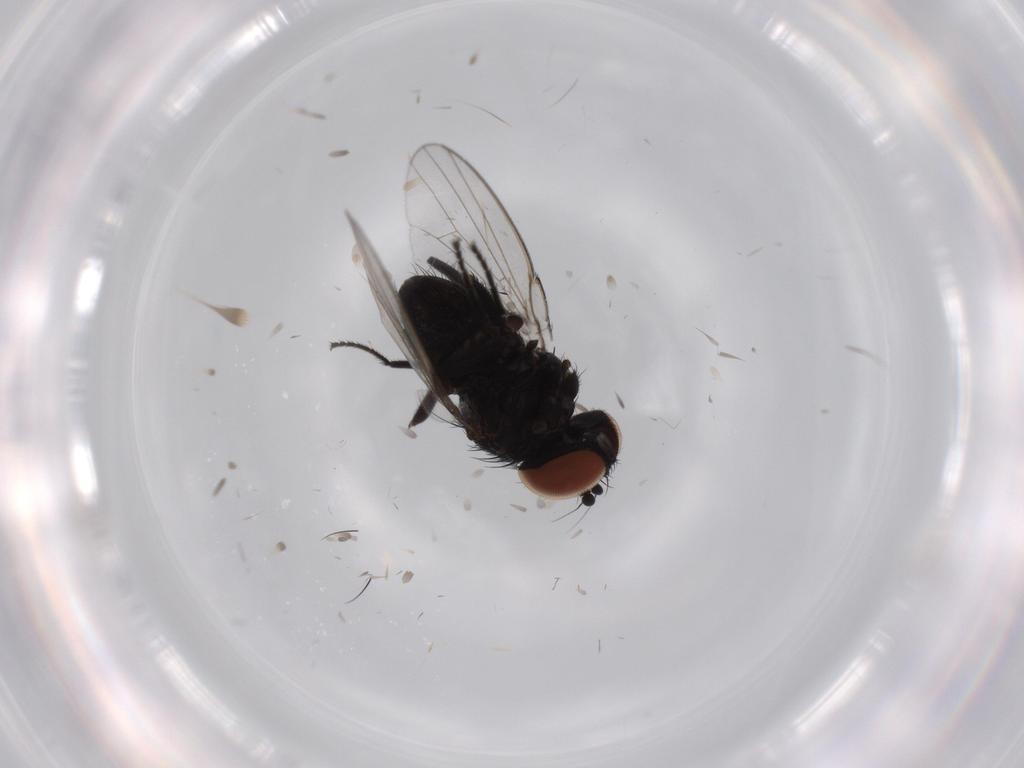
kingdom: Animalia
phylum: Arthropoda
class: Insecta
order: Diptera
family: Milichiidae
